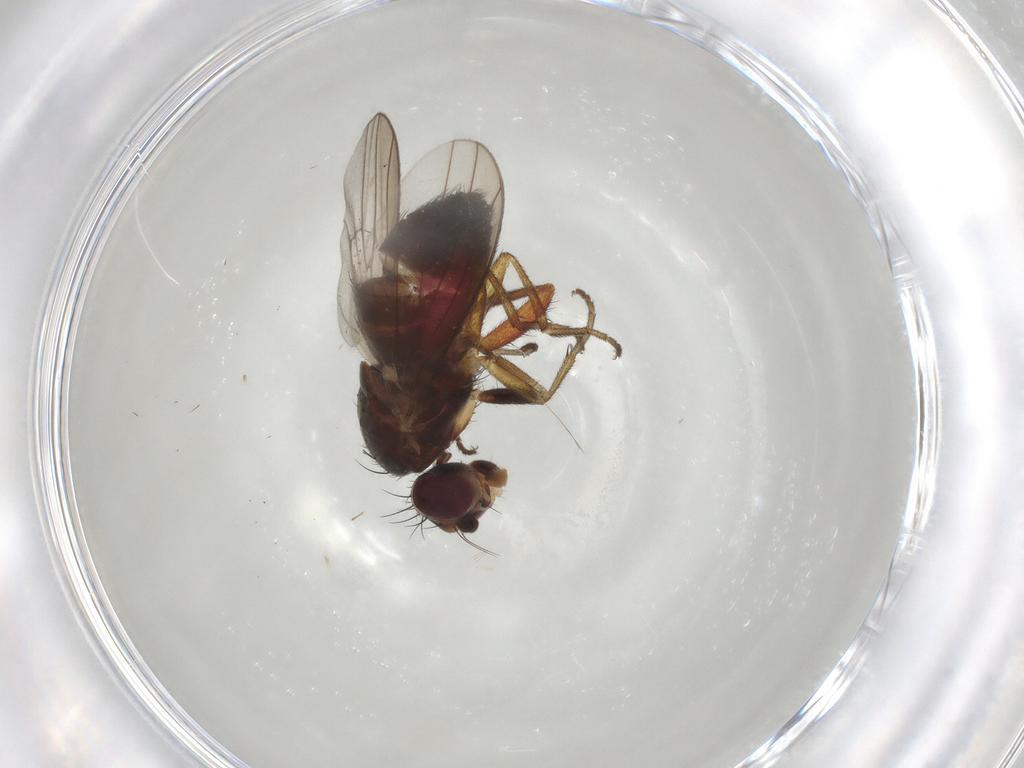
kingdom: Animalia
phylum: Arthropoda
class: Insecta
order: Diptera
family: Heleomyzidae
